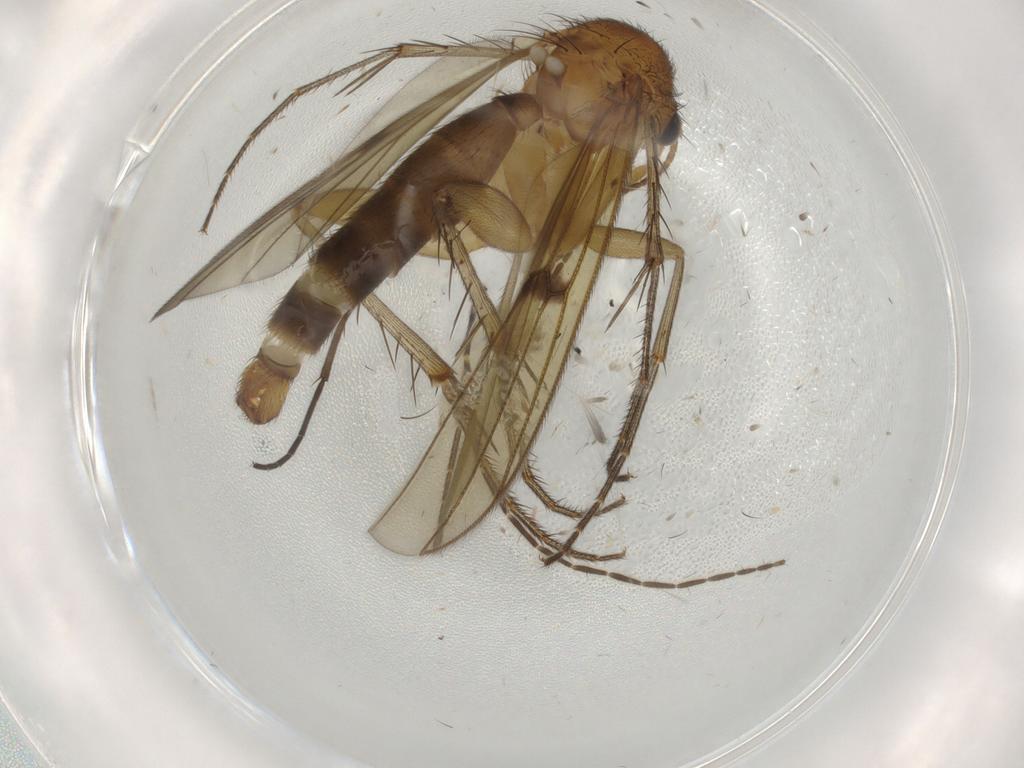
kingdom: Animalia
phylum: Arthropoda
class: Insecta
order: Diptera
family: Limoniidae
